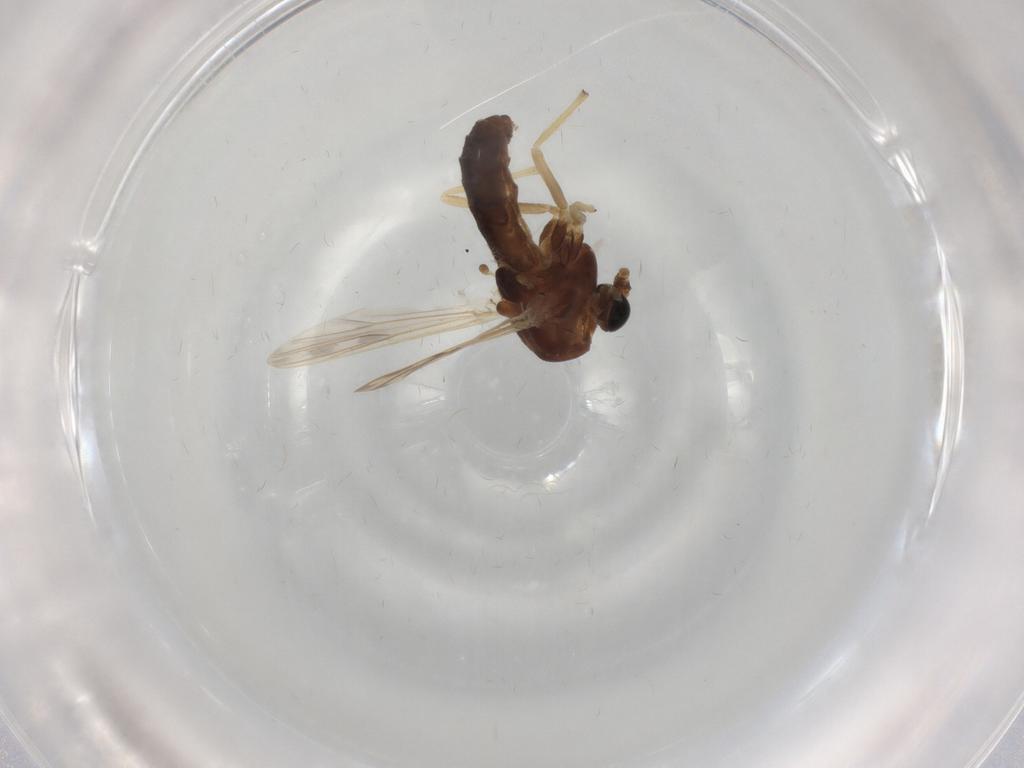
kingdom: Animalia
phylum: Arthropoda
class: Insecta
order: Diptera
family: Chironomidae
